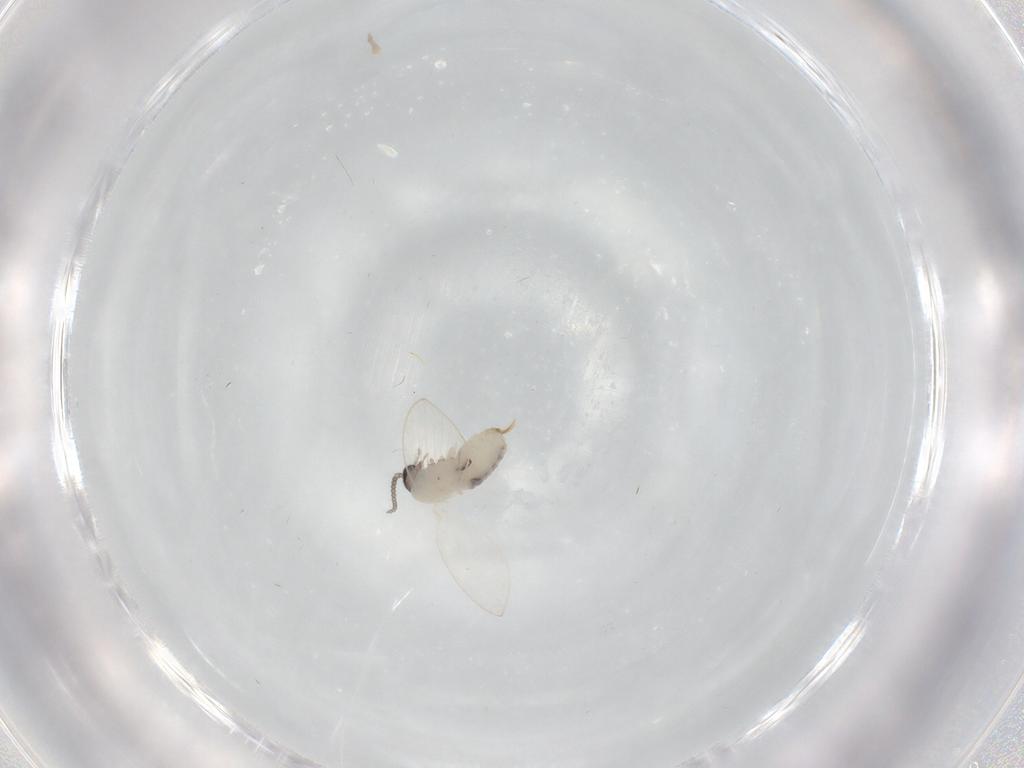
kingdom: Animalia
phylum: Arthropoda
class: Insecta
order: Diptera
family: Psychodidae
